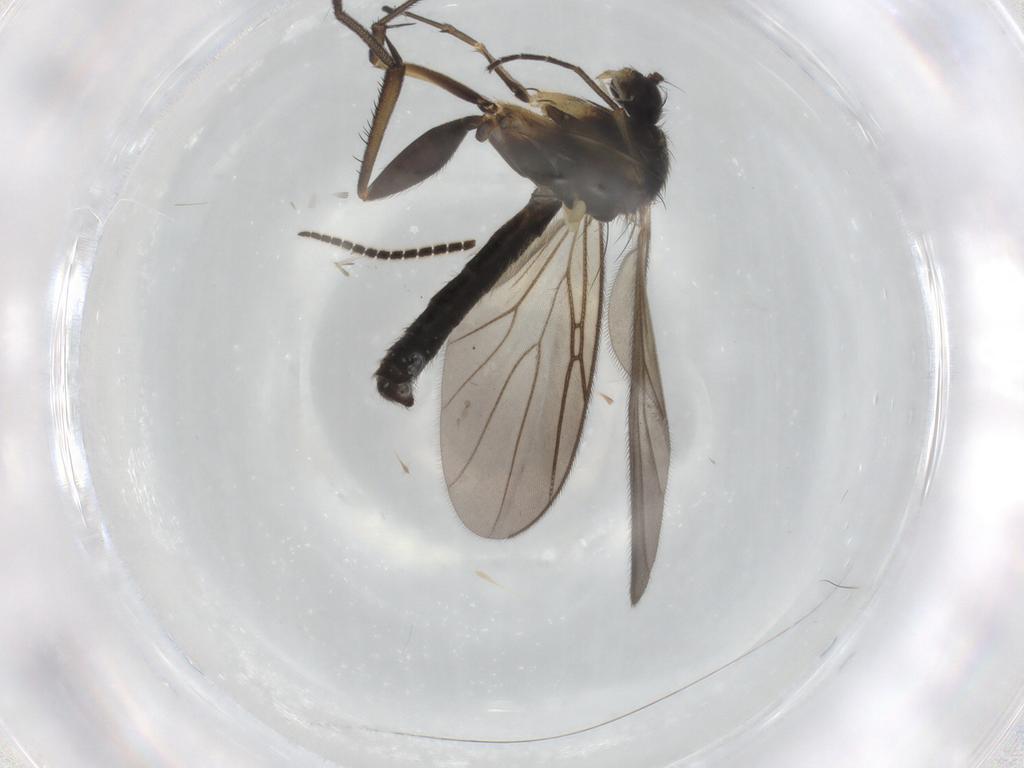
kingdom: Animalia
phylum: Arthropoda
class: Insecta
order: Diptera
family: Mycetophilidae
